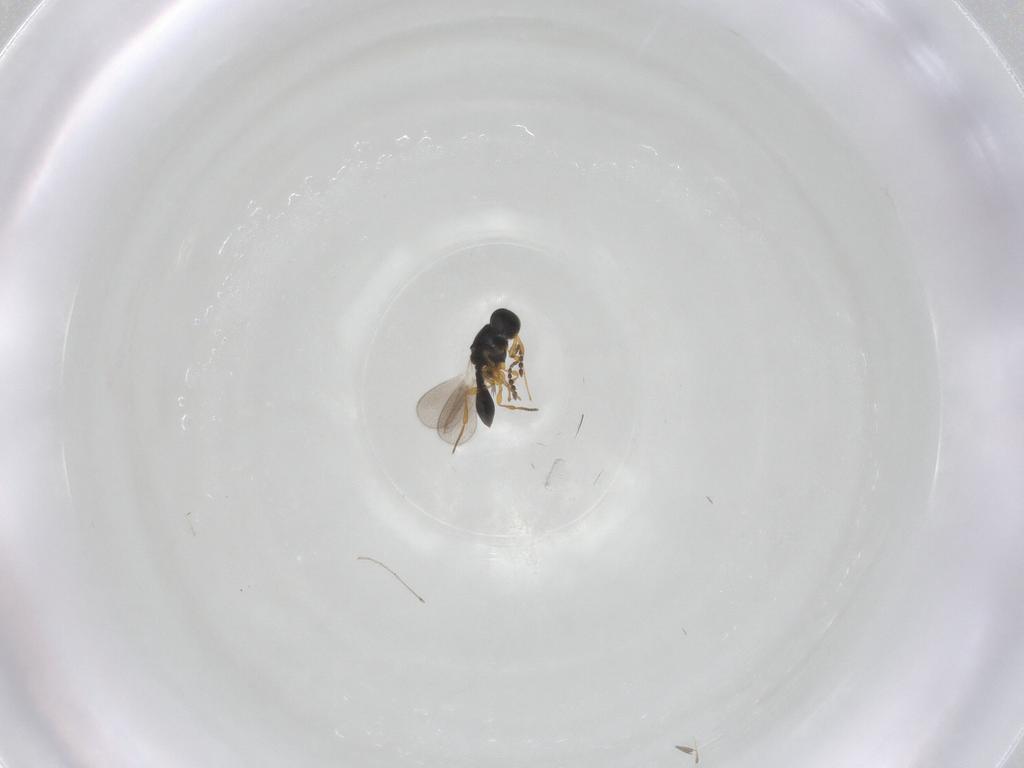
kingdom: Animalia
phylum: Arthropoda
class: Insecta
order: Hymenoptera
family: Platygastridae
